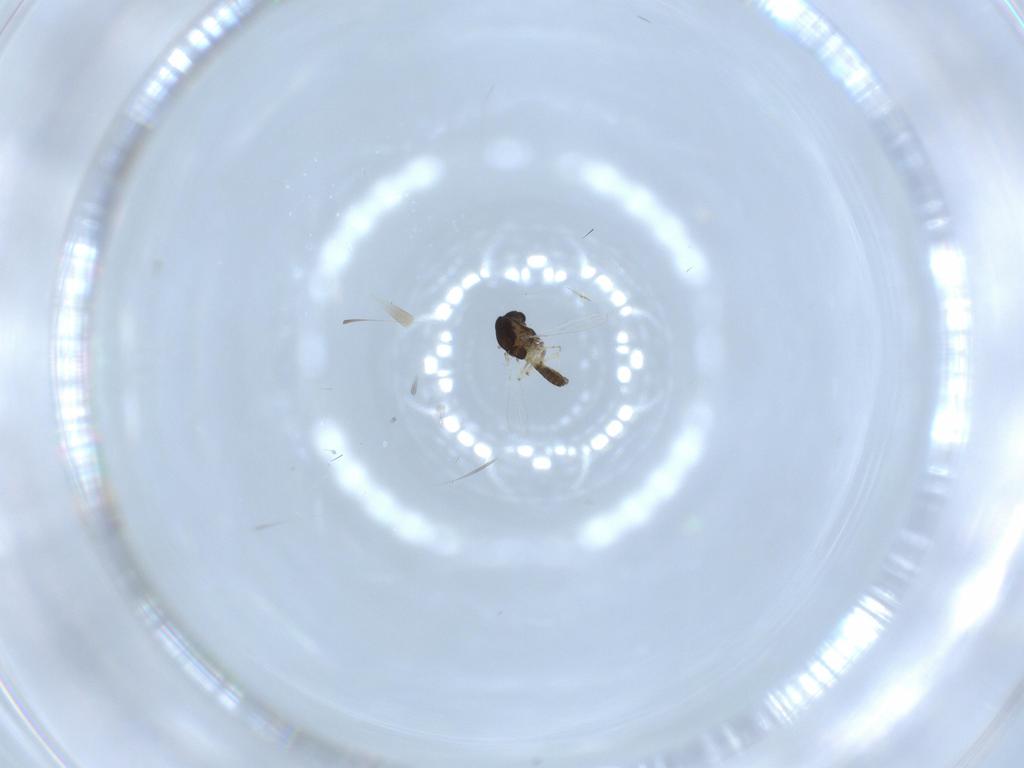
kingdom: Animalia
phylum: Arthropoda
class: Insecta
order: Diptera
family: Chironomidae
